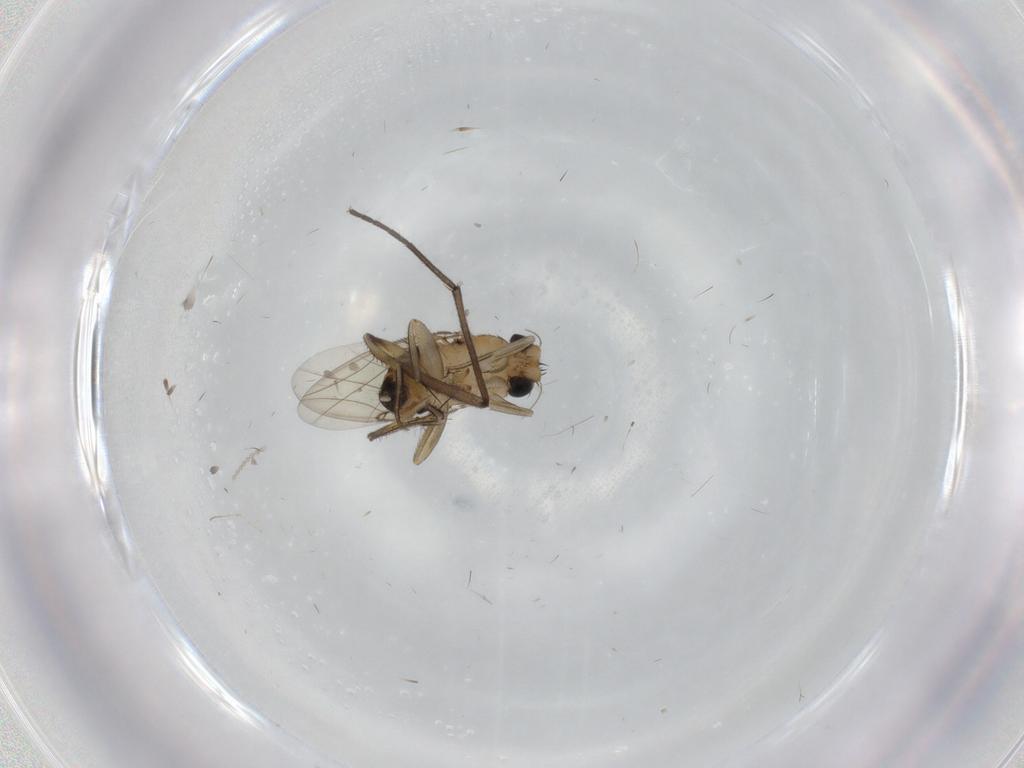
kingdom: Animalia
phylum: Arthropoda
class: Insecta
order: Diptera
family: Phoridae
